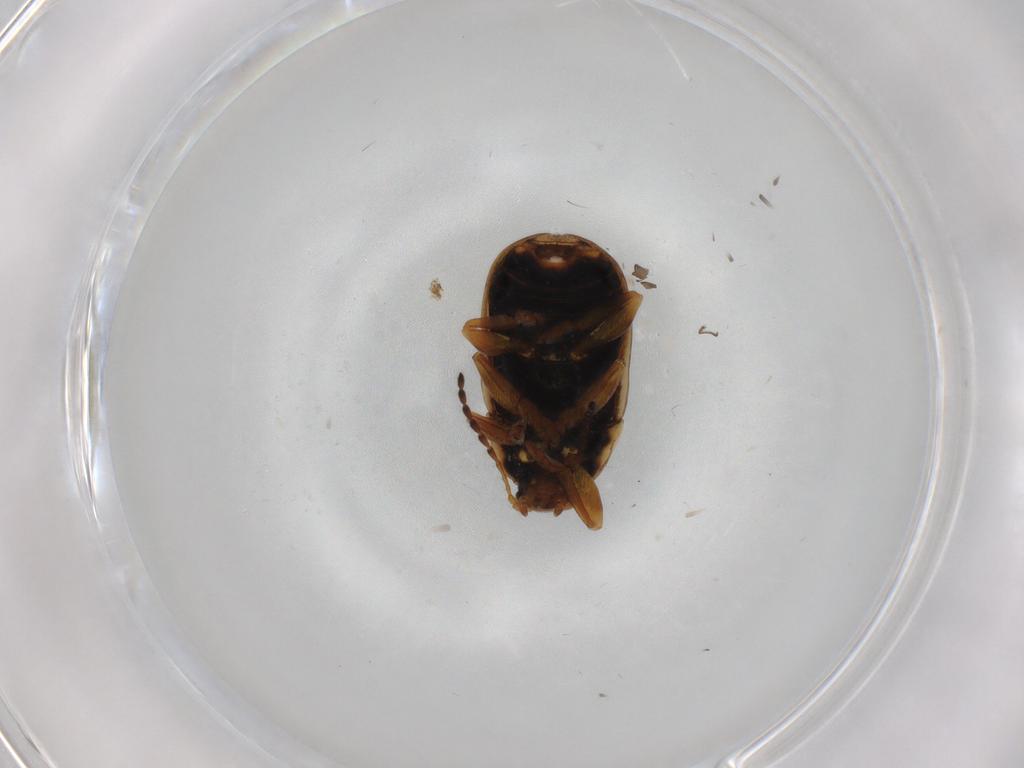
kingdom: Animalia
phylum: Arthropoda
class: Insecta
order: Coleoptera
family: Chrysomelidae
